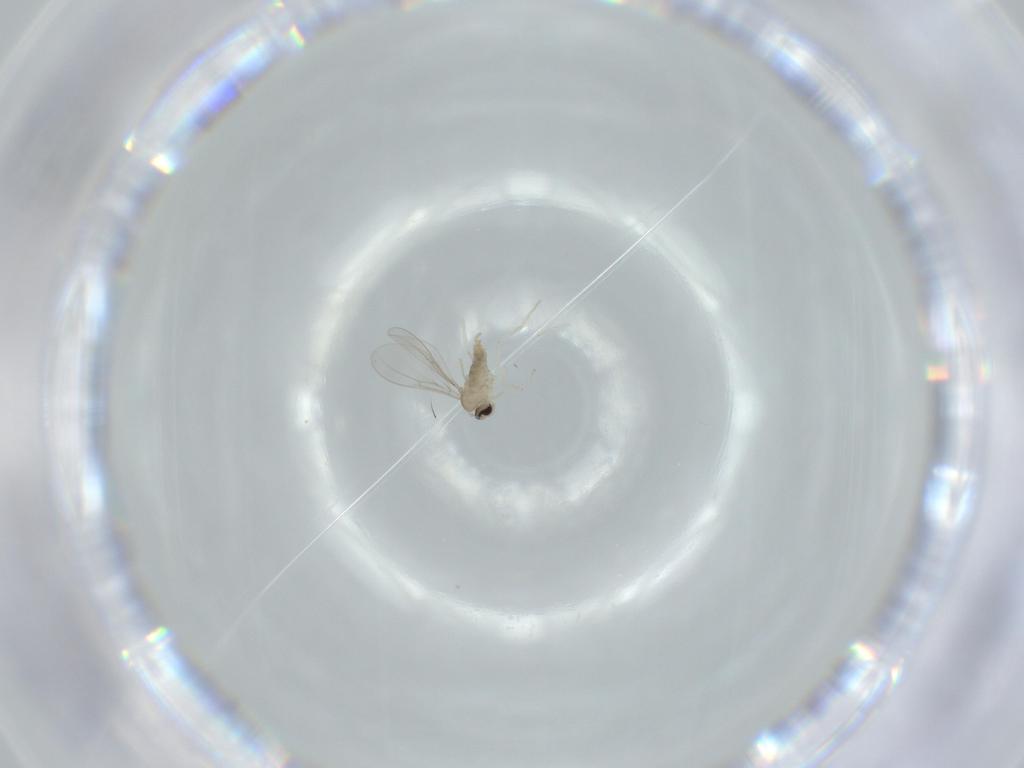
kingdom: Animalia
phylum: Arthropoda
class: Insecta
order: Diptera
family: Cecidomyiidae
